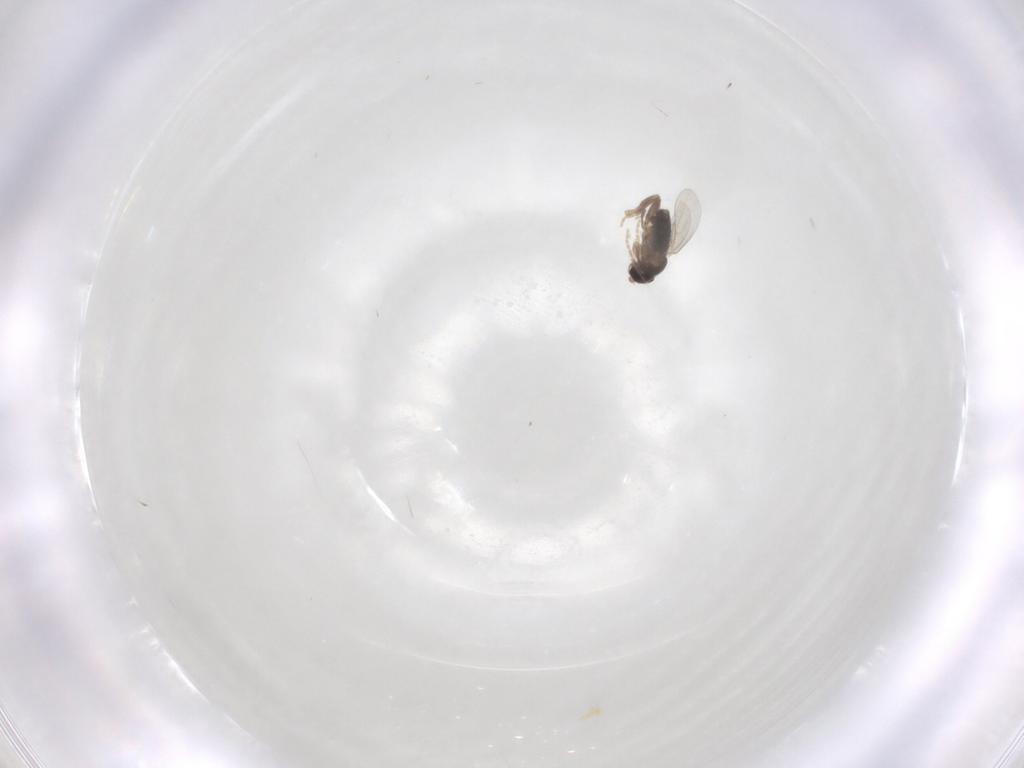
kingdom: Animalia
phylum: Arthropoda
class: Insecta
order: Diptera
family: Phoridae
